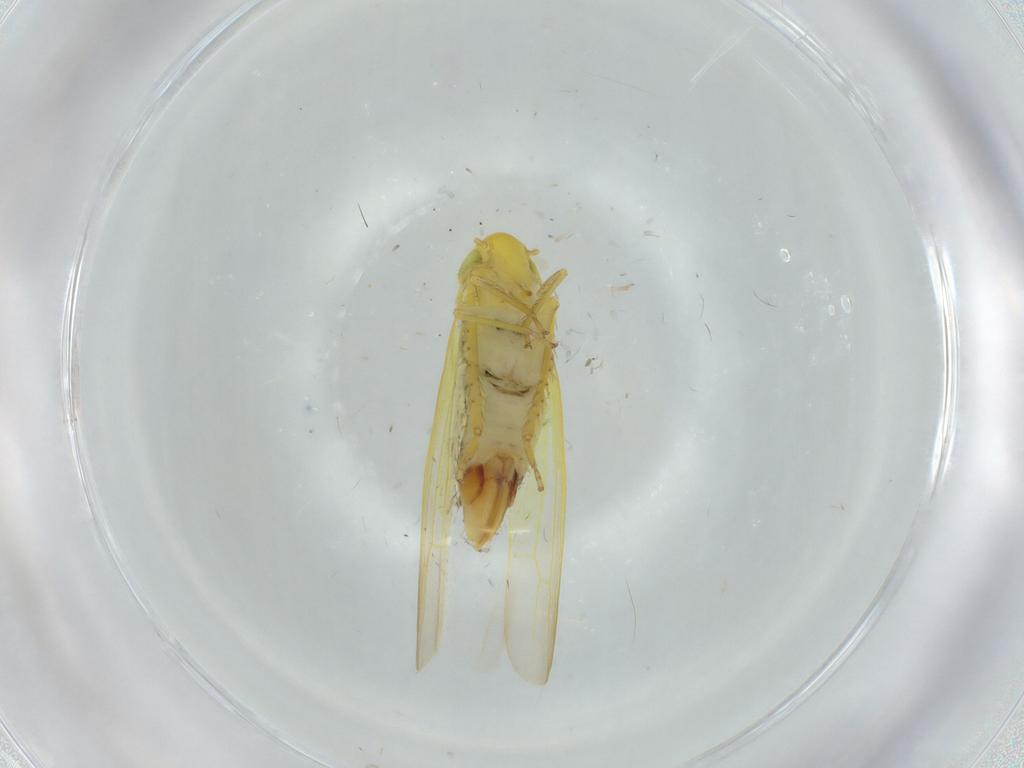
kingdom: Animalia
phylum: Arthropoda
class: Insecta
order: Hemiptera
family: Cicadellidae
